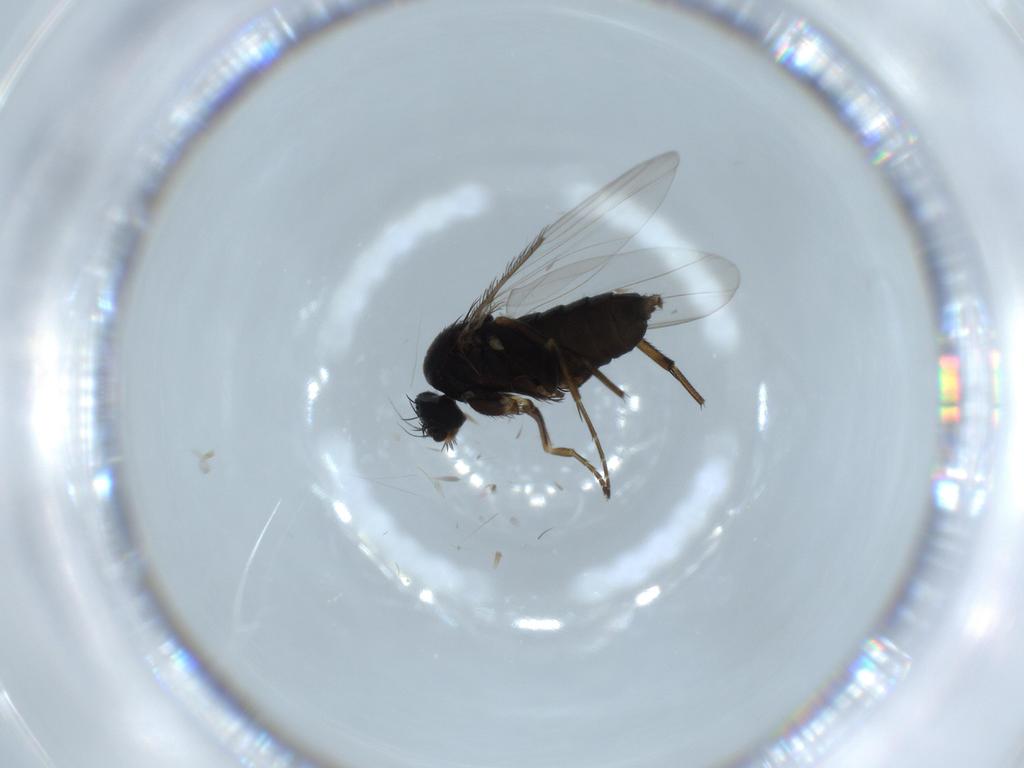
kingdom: Animalia
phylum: Arthropoda
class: Insecta
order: Diptera
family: Phoridae
